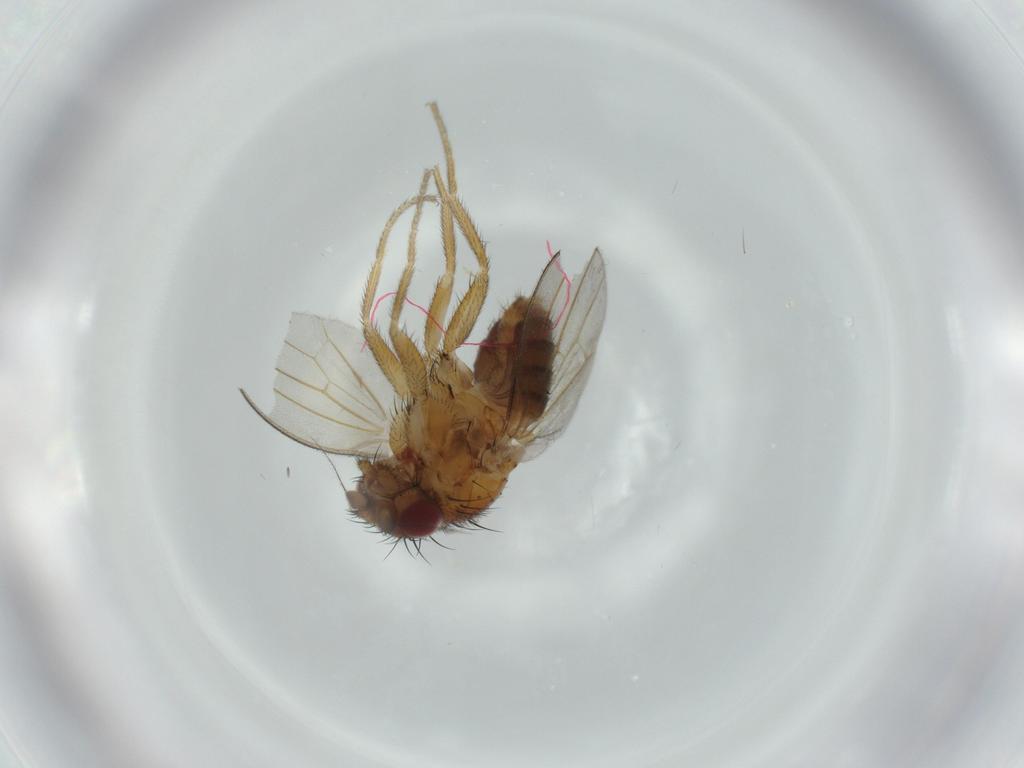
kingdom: Animalia
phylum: Arthropoda
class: Insecta
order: Diptera
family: Milichiidae
